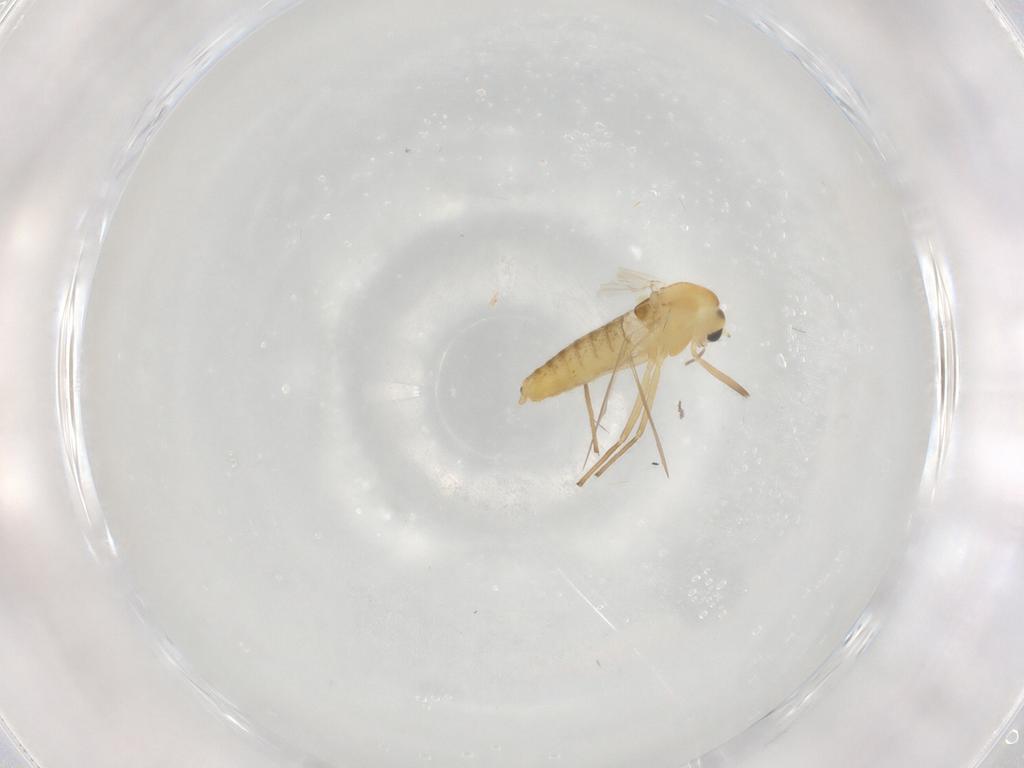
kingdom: Animalia
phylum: Arthropoda
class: Insecta
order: Diptera
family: Chironomidae
